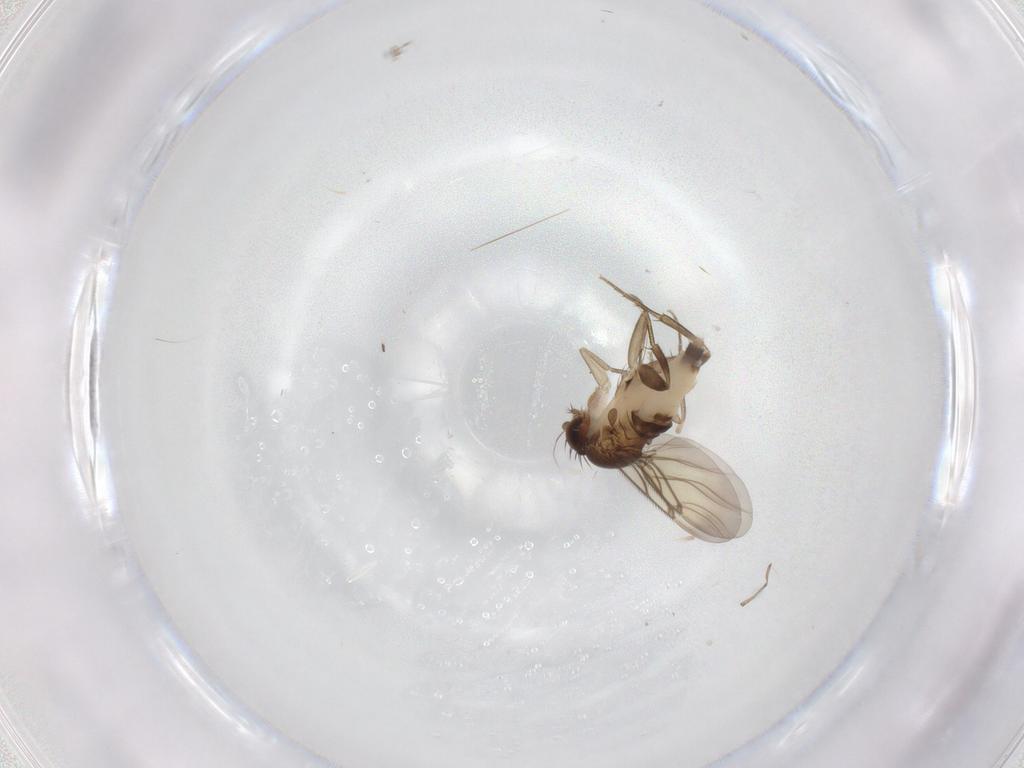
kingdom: Animalia
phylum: Arthropoda
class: Insecta
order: Diptera
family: Phoridae
